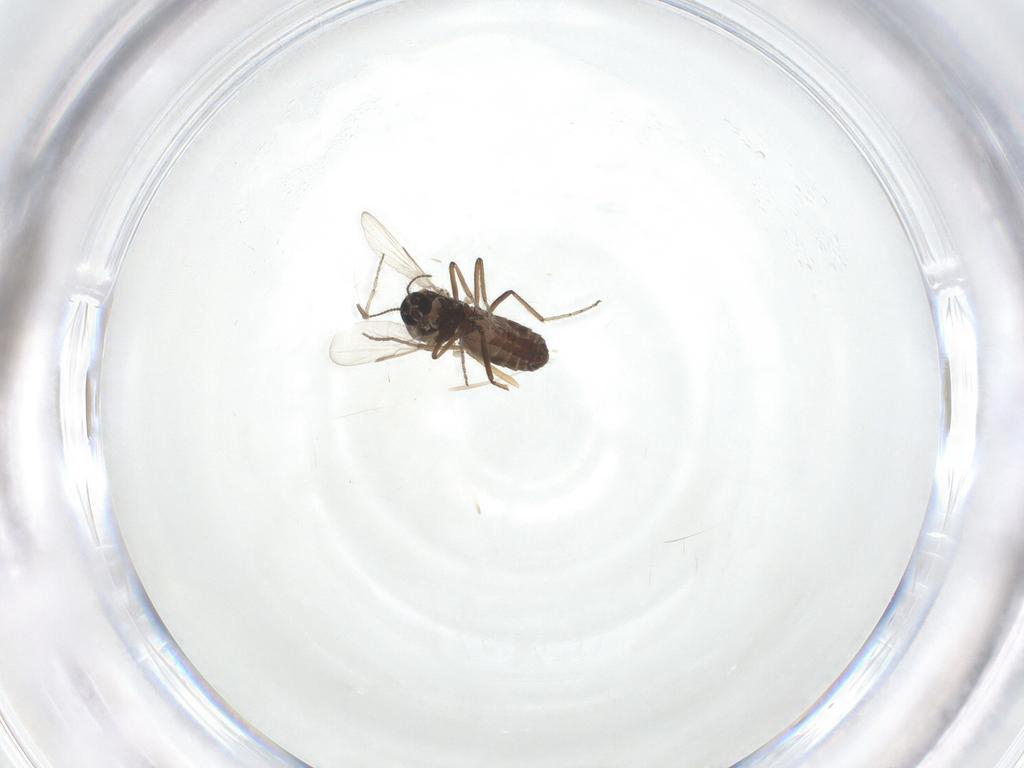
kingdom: Animalia
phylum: Arthropoda
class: Insecta
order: Diptera
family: Ceratopogonidae
